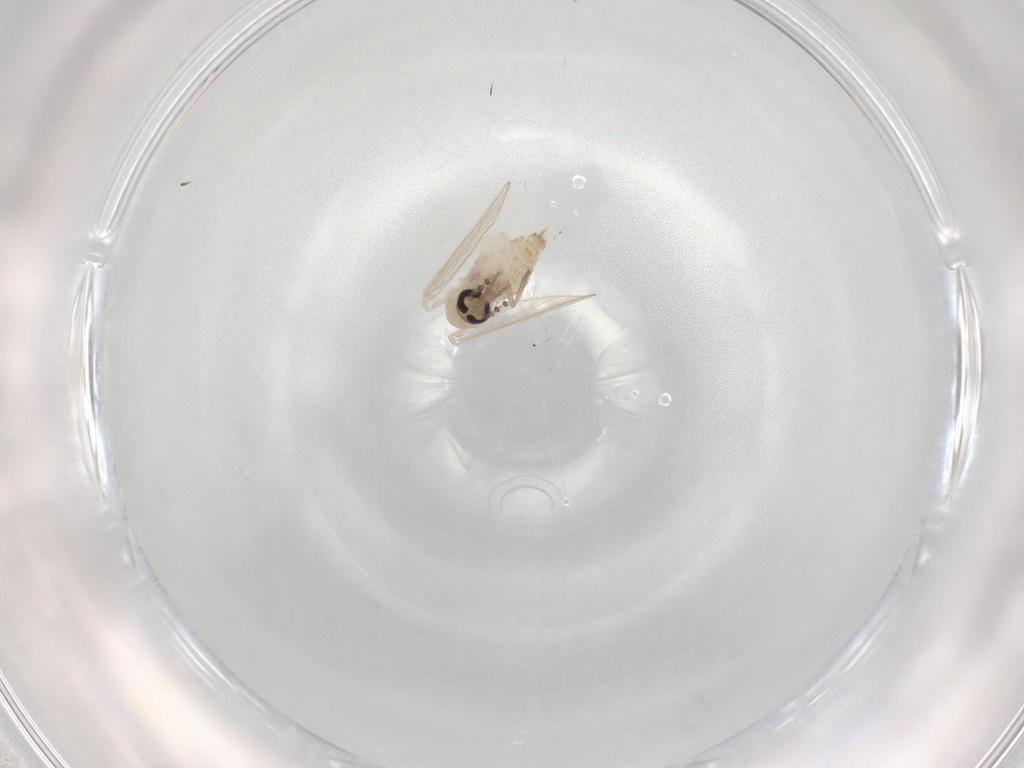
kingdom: Animalia
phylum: Arthropoda
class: Insecta
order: Diptera
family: Psychodidae
